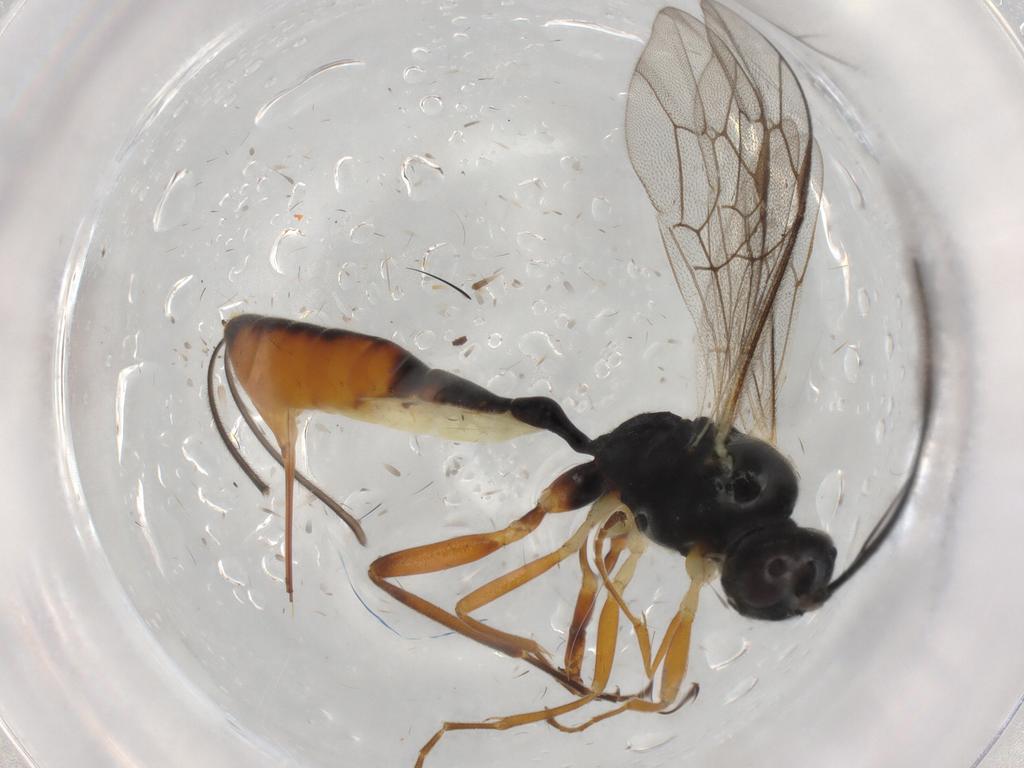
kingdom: Animalia
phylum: Arthropoda
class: Insecta
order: Hymenoptera
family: Ichneumonidae
